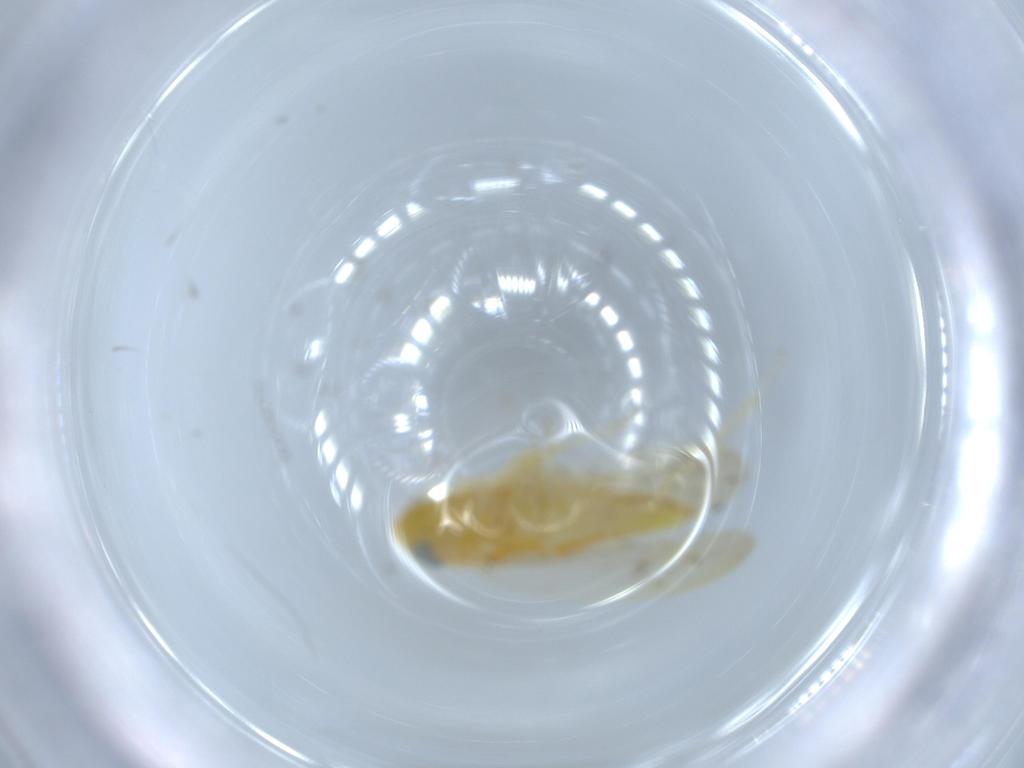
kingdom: Animalia
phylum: Arthropoda
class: Insecta
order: Hemiptera
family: Cicadellidae
